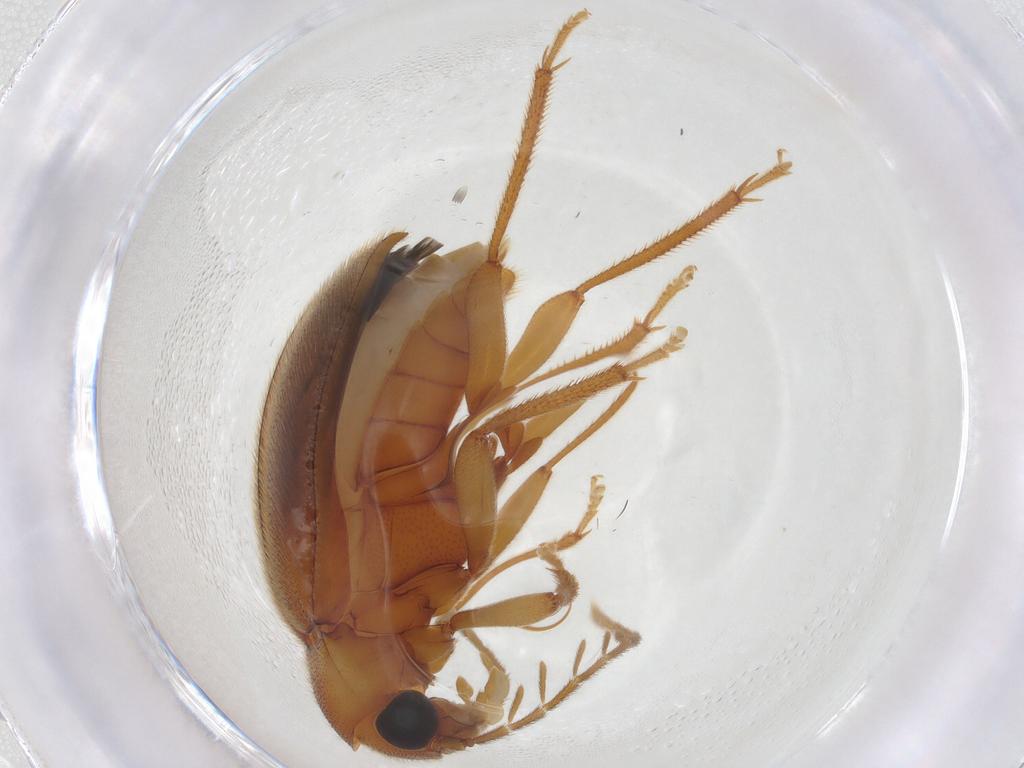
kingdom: Animalia
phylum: Arthropoda
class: Insecta
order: Coleoptera
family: Ptilodactylidae
